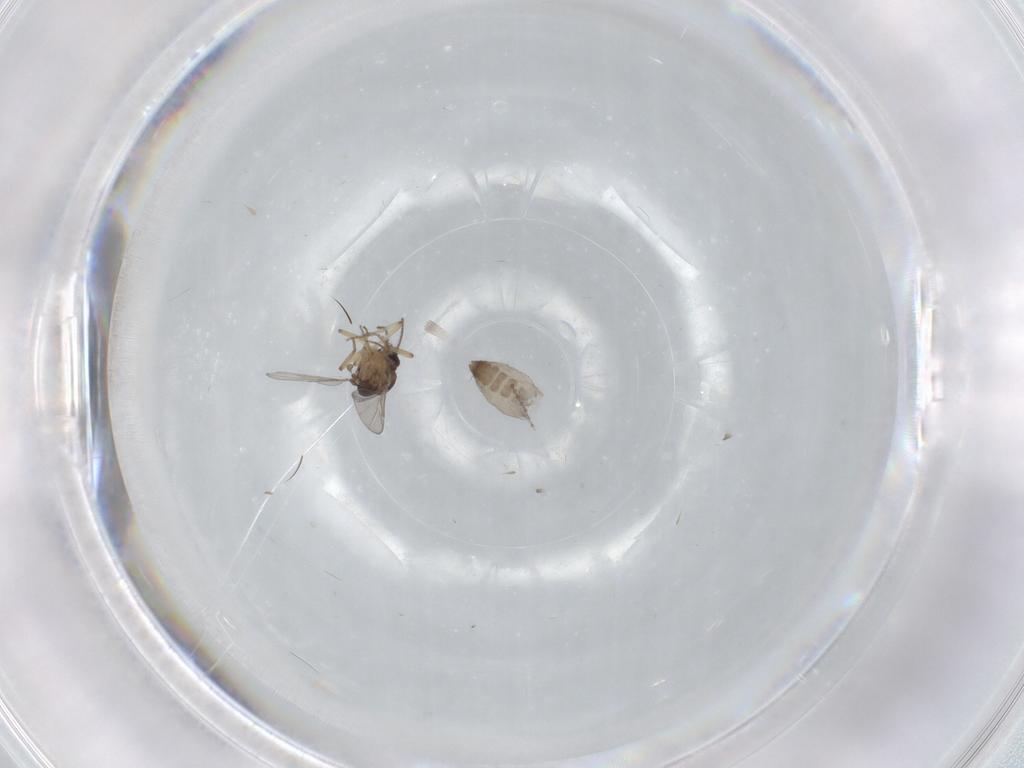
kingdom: Animalia
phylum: Arthropoda
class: Insecta
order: Diptera
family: Ceratopogonidae
